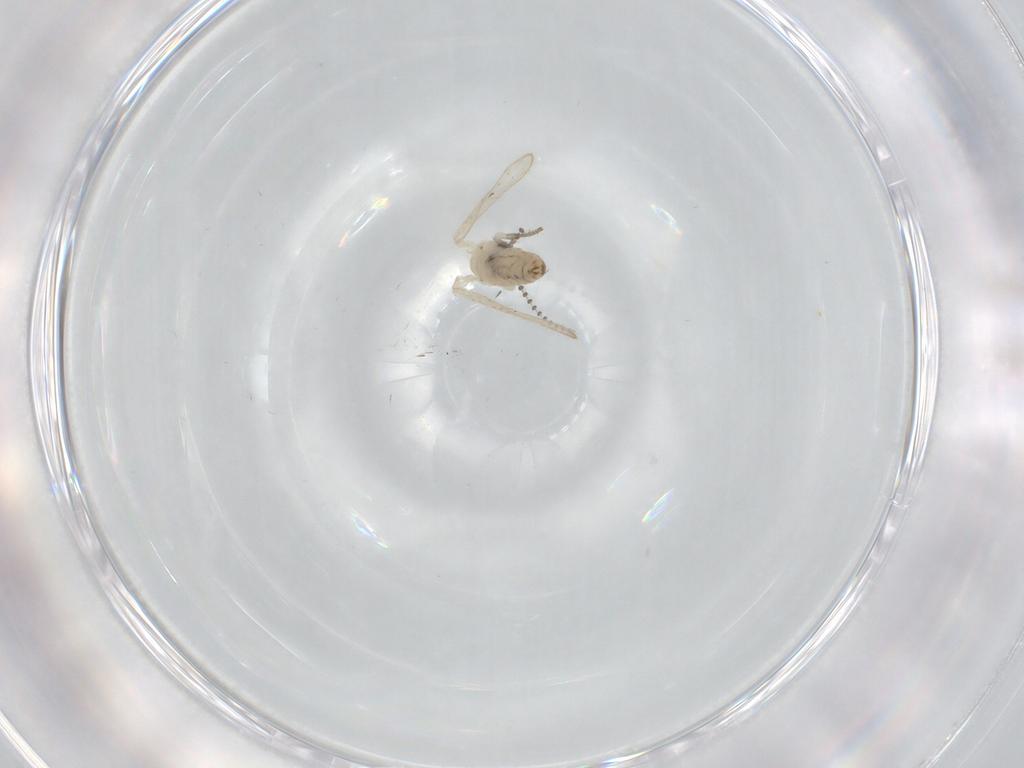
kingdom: Animalia
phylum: Arthropoda
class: Insecta
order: Diptera
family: Psychodidae
